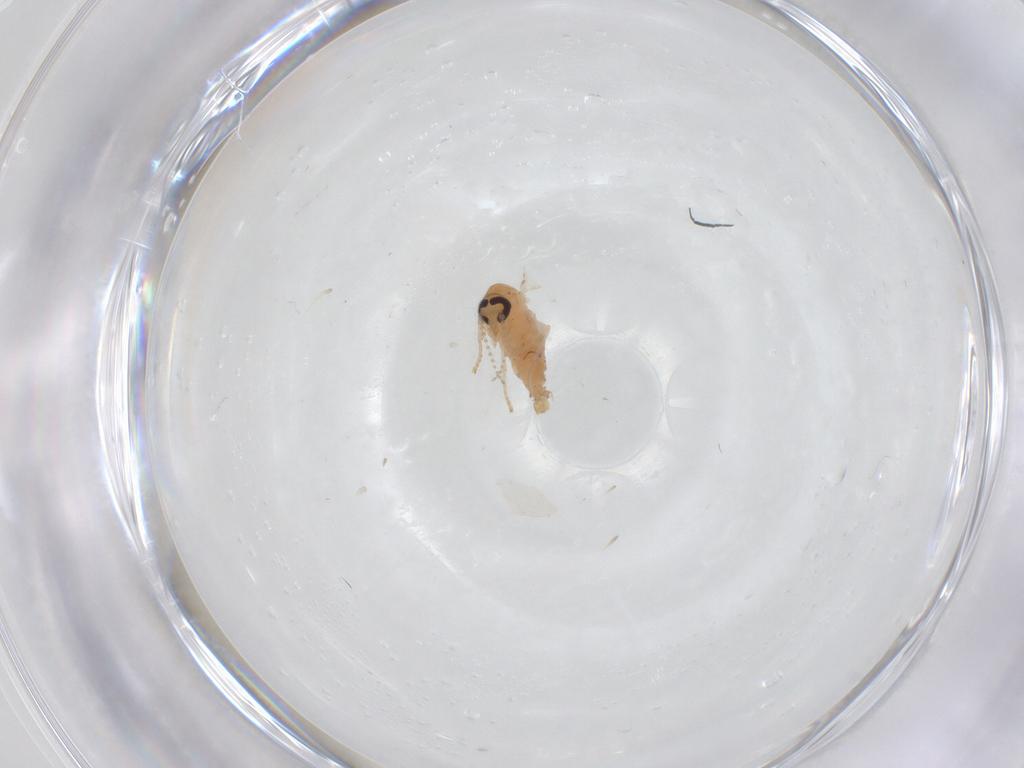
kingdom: Animalia
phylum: Arthropoda
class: Insecta
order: Diptera
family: Psychodidae
